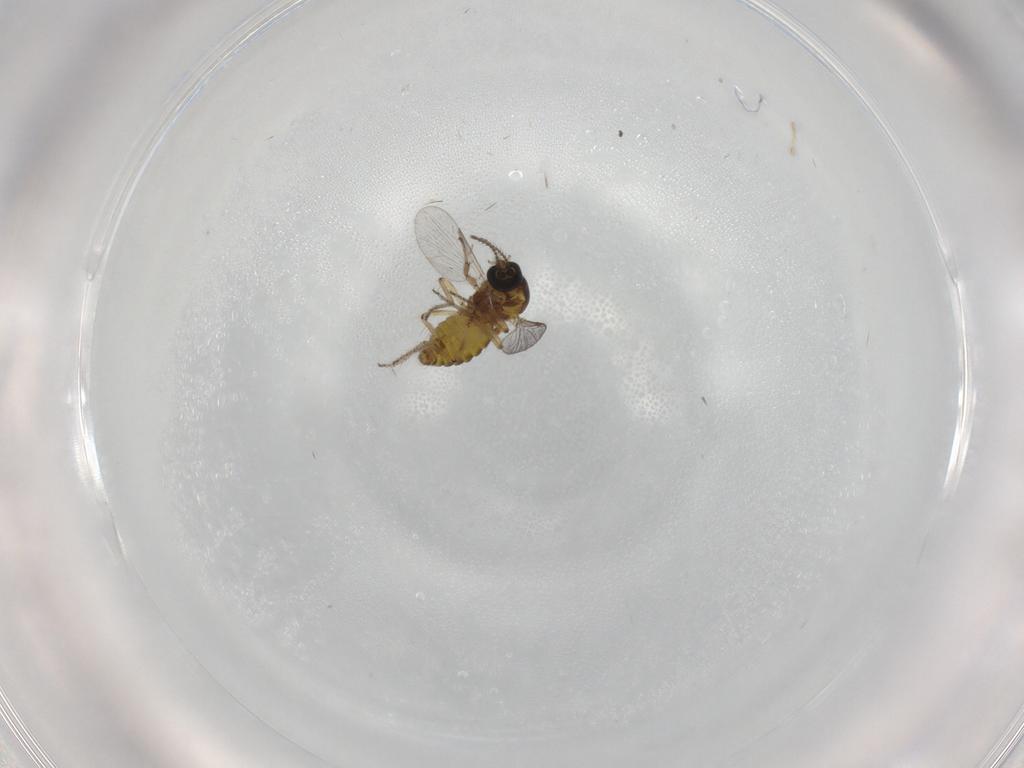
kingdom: Animalia
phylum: Arthropoda
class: Insecta
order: Diptera
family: Ceratopogonidae
